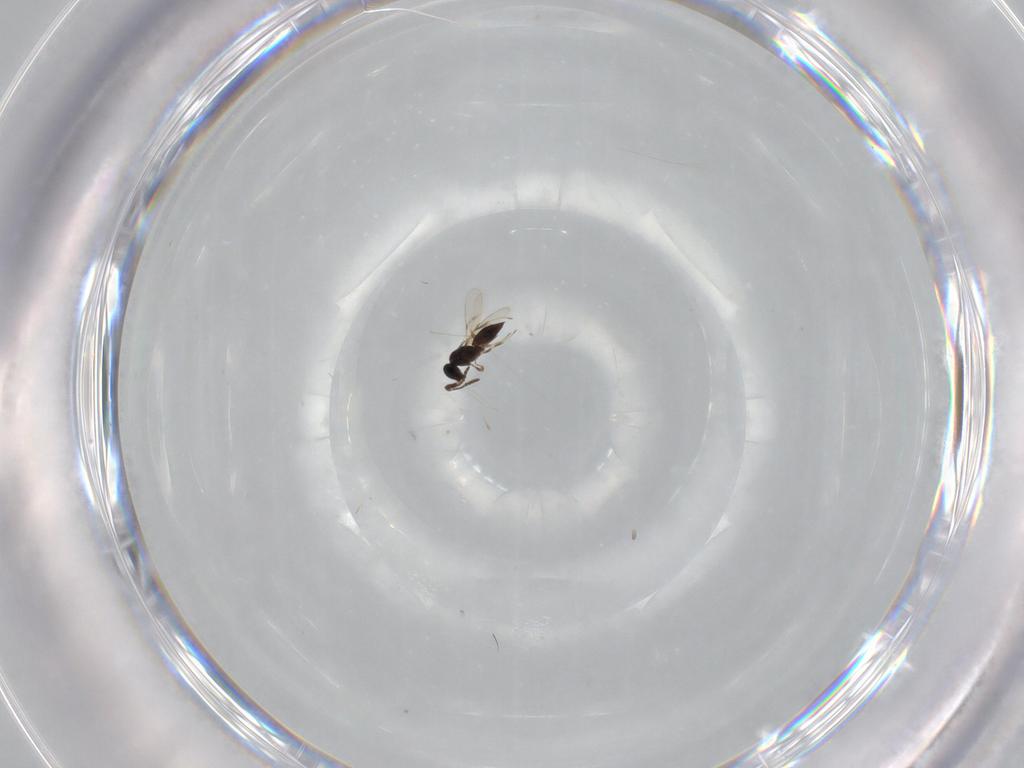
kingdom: Animalia
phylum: Arthropoda
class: Insecta
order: Hymenoptera
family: Scelionidae
